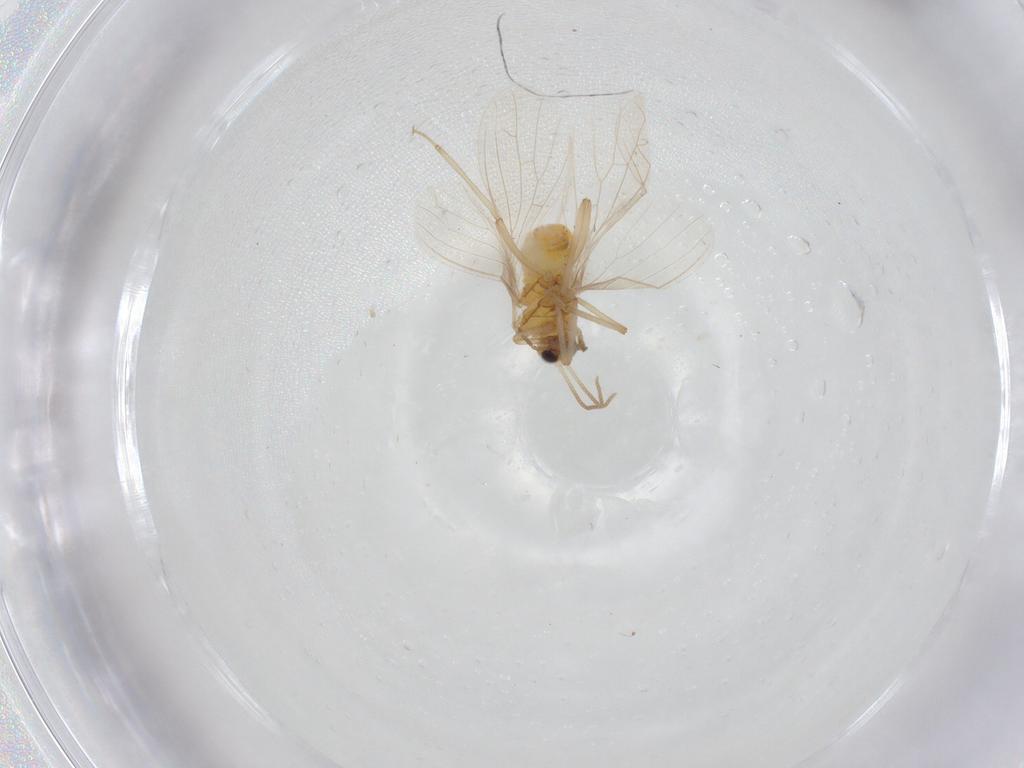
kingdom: Animalia
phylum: Arthropoda
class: Insecta
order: Neuroptera
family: Coniopterygidae
